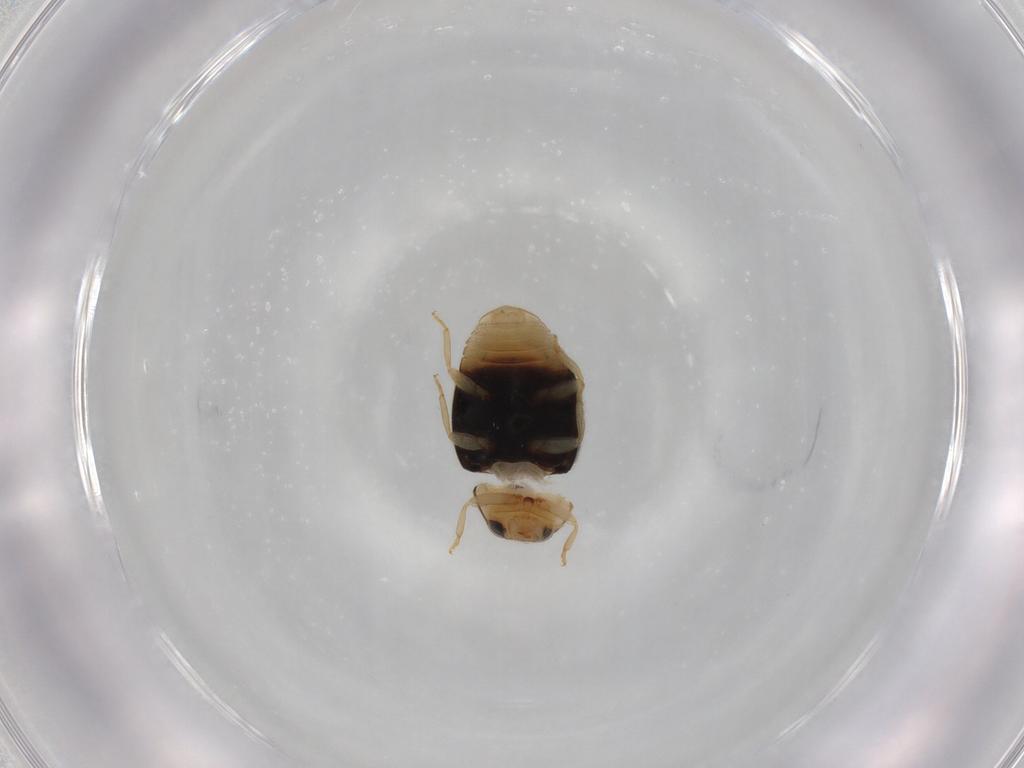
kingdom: Animalia
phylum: Arthropoda
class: Insecta
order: Coleoptera
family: Coccinellidae
